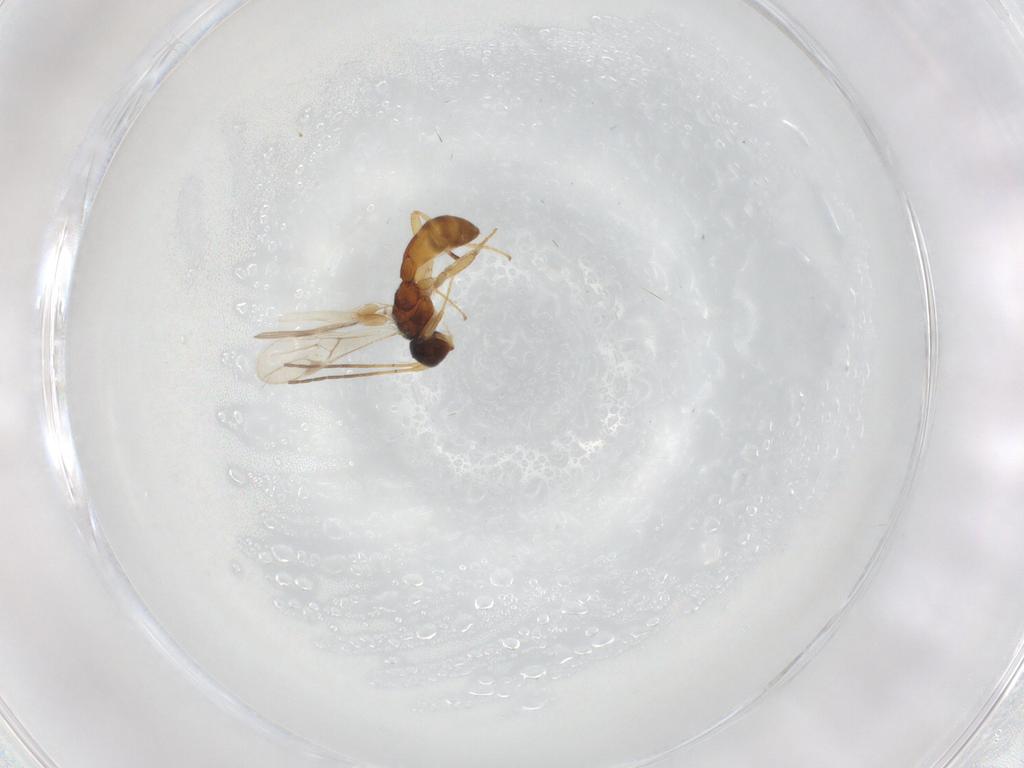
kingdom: Animalia
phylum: Arthropoda
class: Insecta
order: Hymenoptera
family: Braconidae
